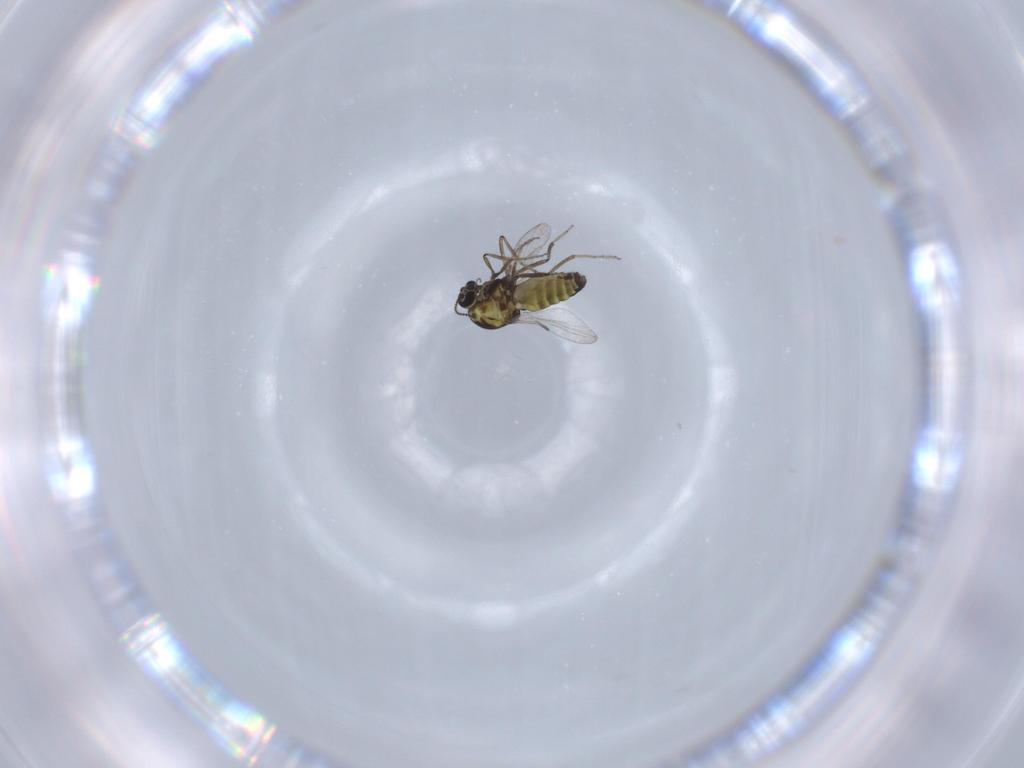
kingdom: Animalia
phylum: Arthropoda
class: Insecta
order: Diptera
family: Ceratopogonidae
